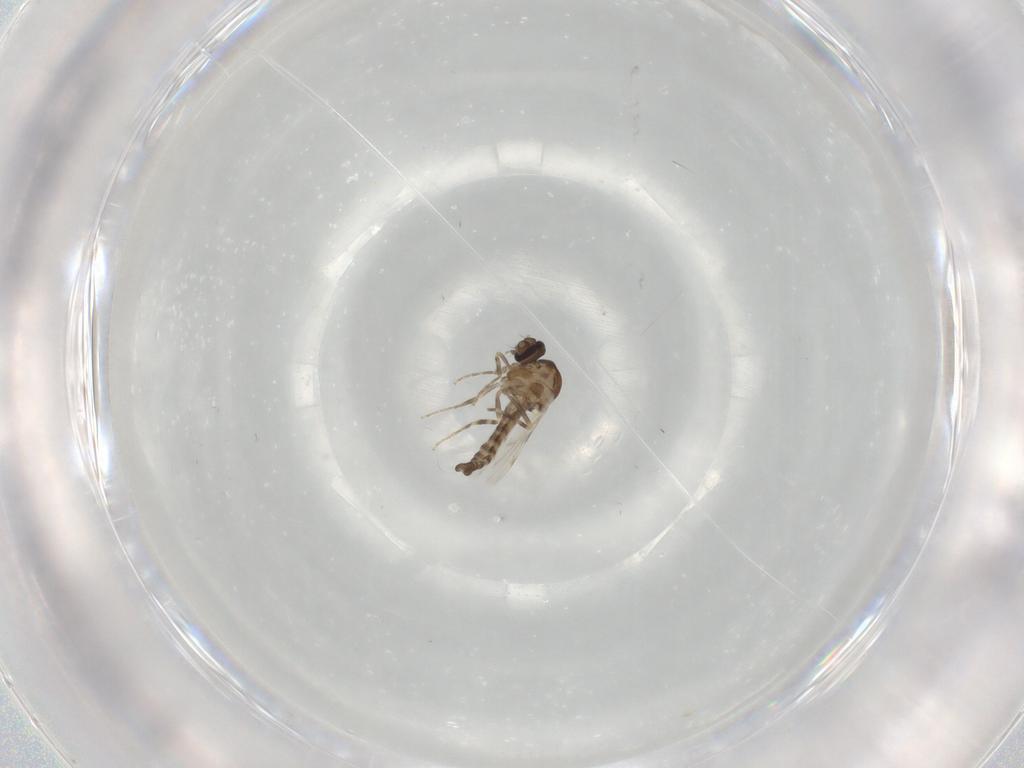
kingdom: Animalia
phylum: Arthropoda
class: Insecta
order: Diptera
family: Ceratopogonidae
